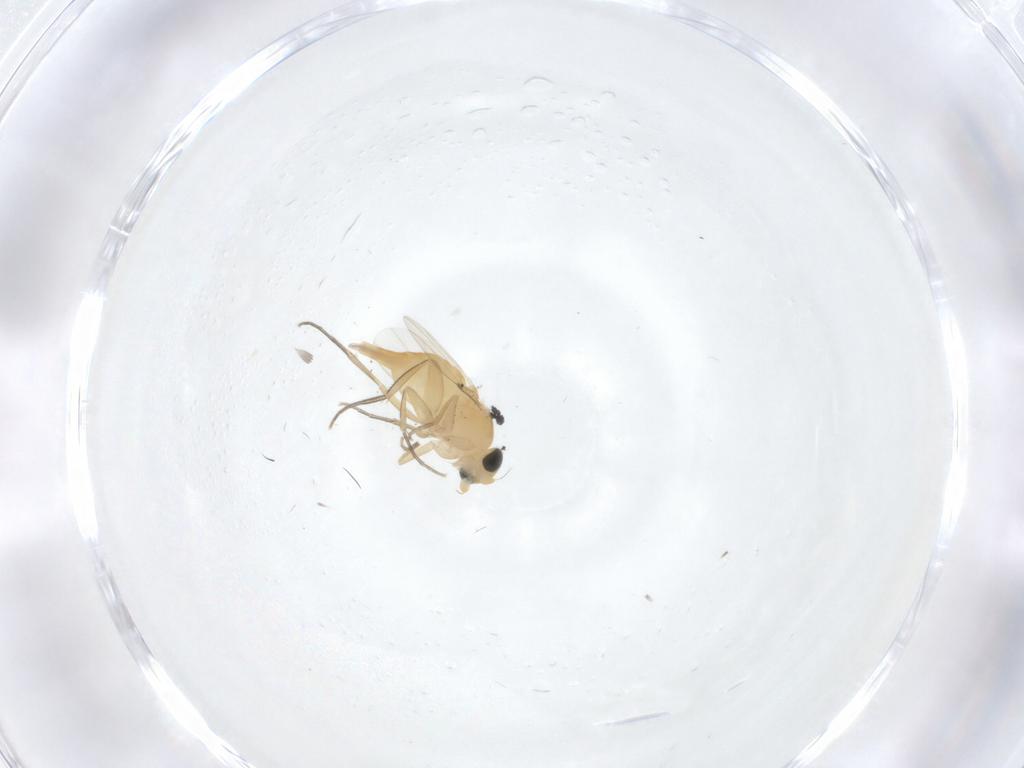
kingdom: Animalia
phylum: Arthropoda
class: Insecta
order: Diptera
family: Phoridae
